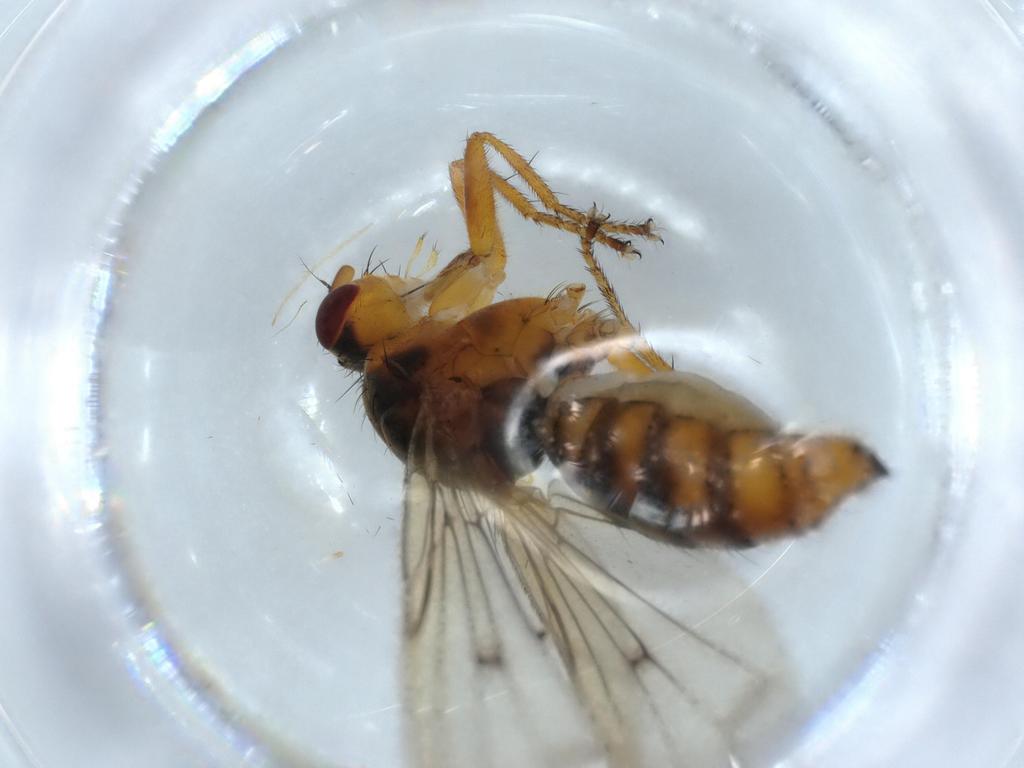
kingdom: Animalia
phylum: Arthropoda
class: Insecta
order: Diptera
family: Scathophagidae
